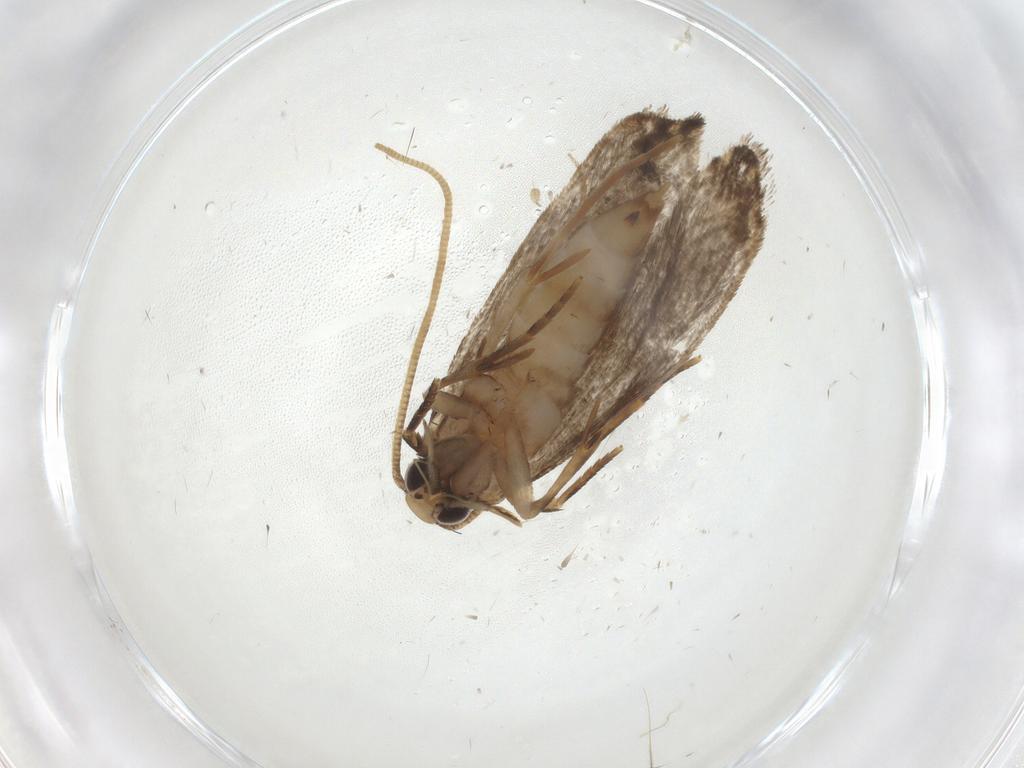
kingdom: Animalia
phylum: Arthropoda
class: Insecta
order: Lepidoptera
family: Tineidae
